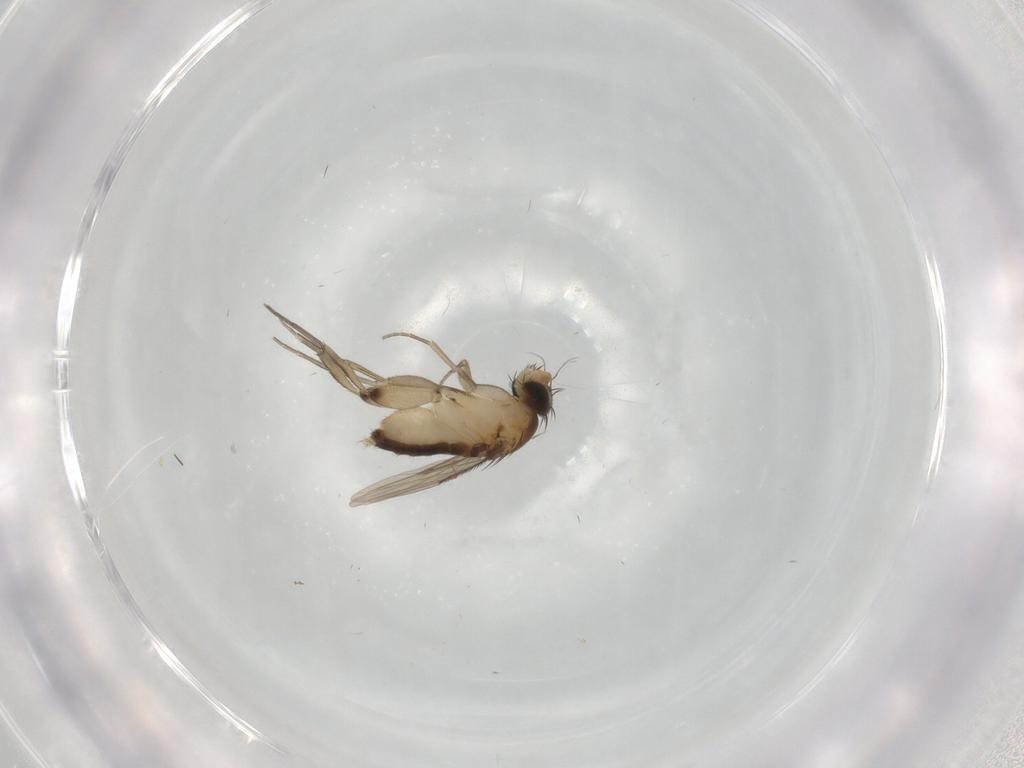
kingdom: Animalia
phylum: Arthropoda
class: Insecta
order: Diptera
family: Phoridae
